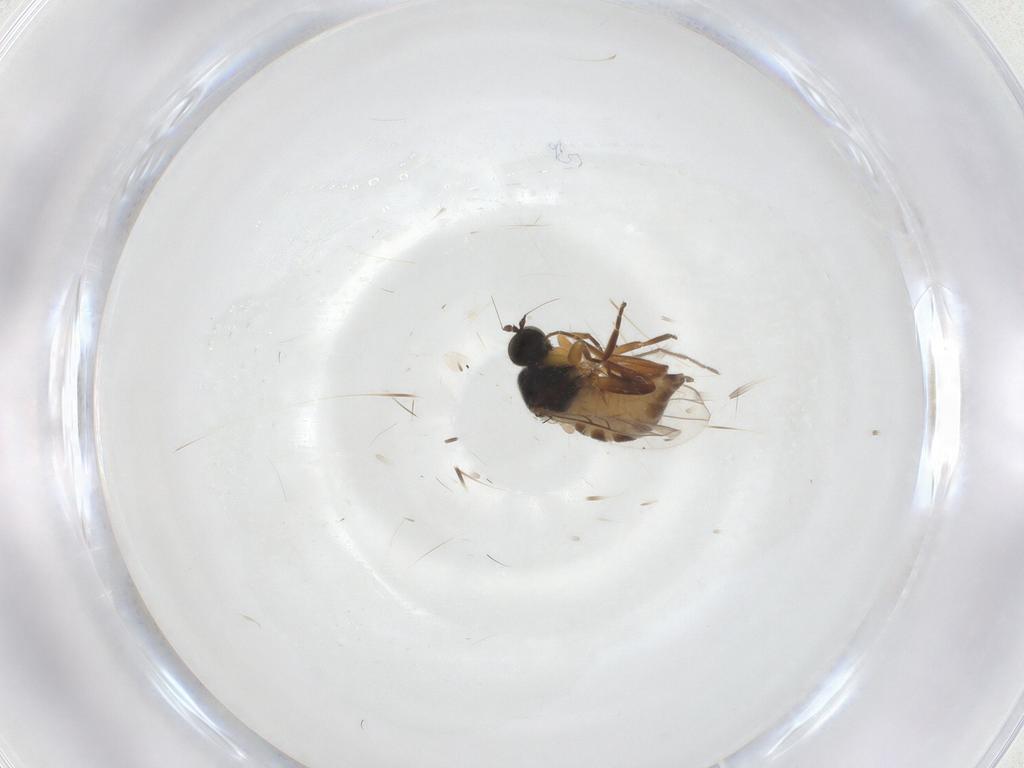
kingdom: Animalia
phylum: Arthropoda
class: Insecta
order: Diptera
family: Hybotidae
